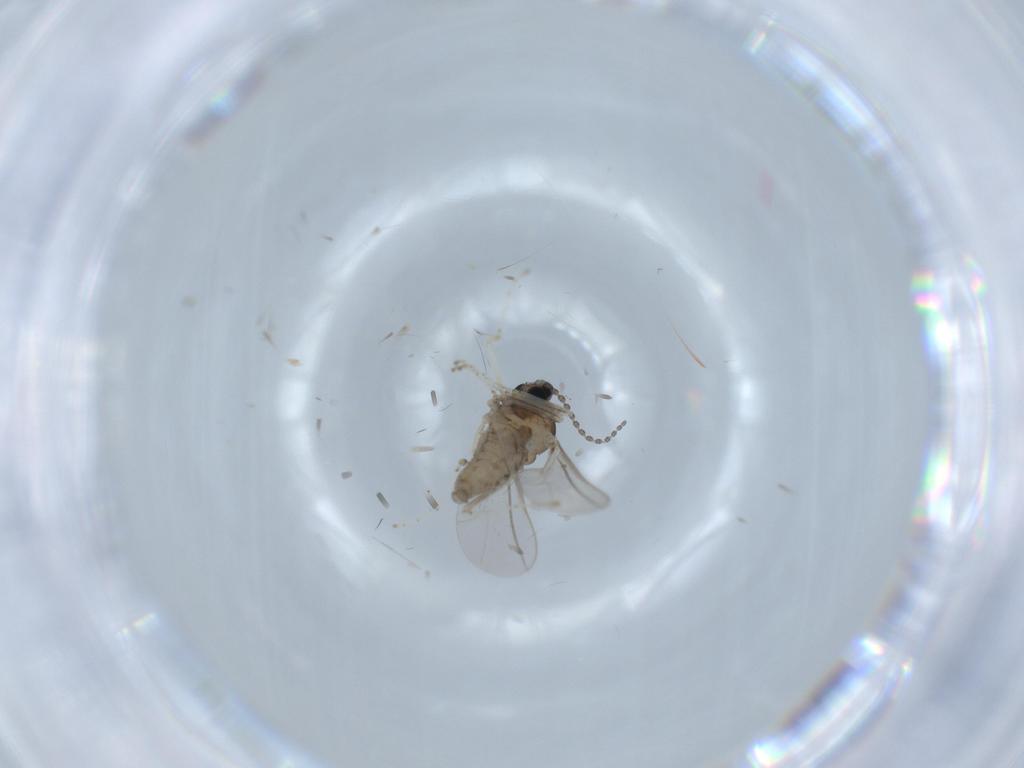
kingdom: Animalia
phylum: Arthropoda
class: Insecta
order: Diptera
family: Cecidomyiidae
